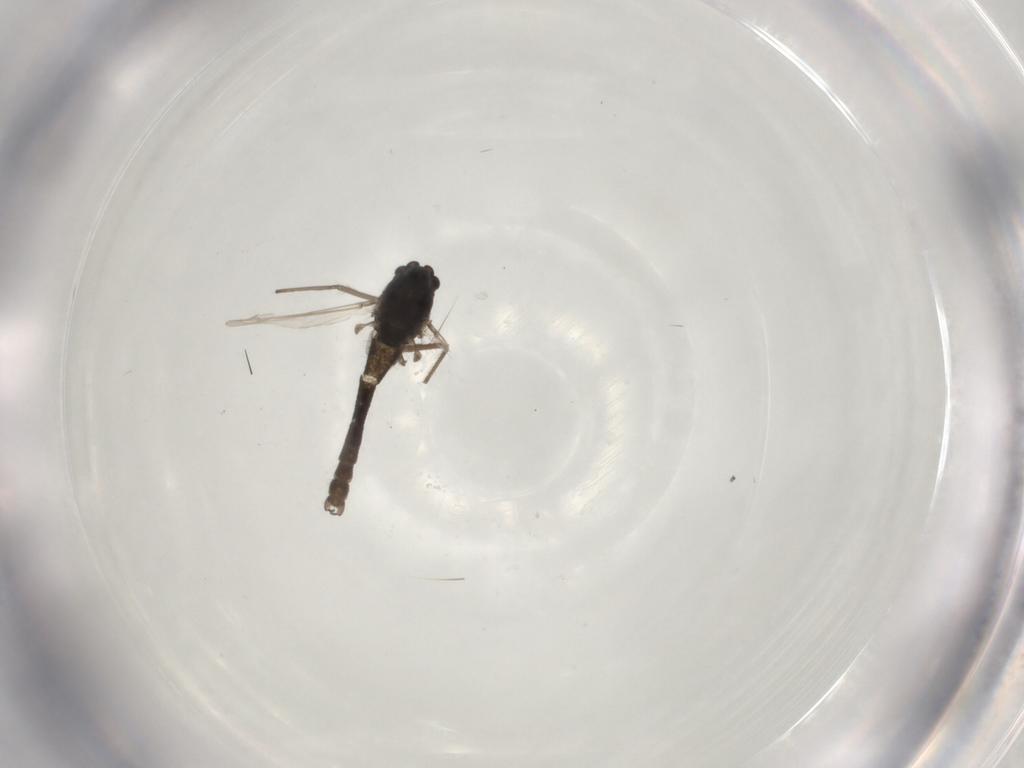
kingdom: Animalia
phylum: Arthropoda
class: Insecta
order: Diptera
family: Chironomidae
